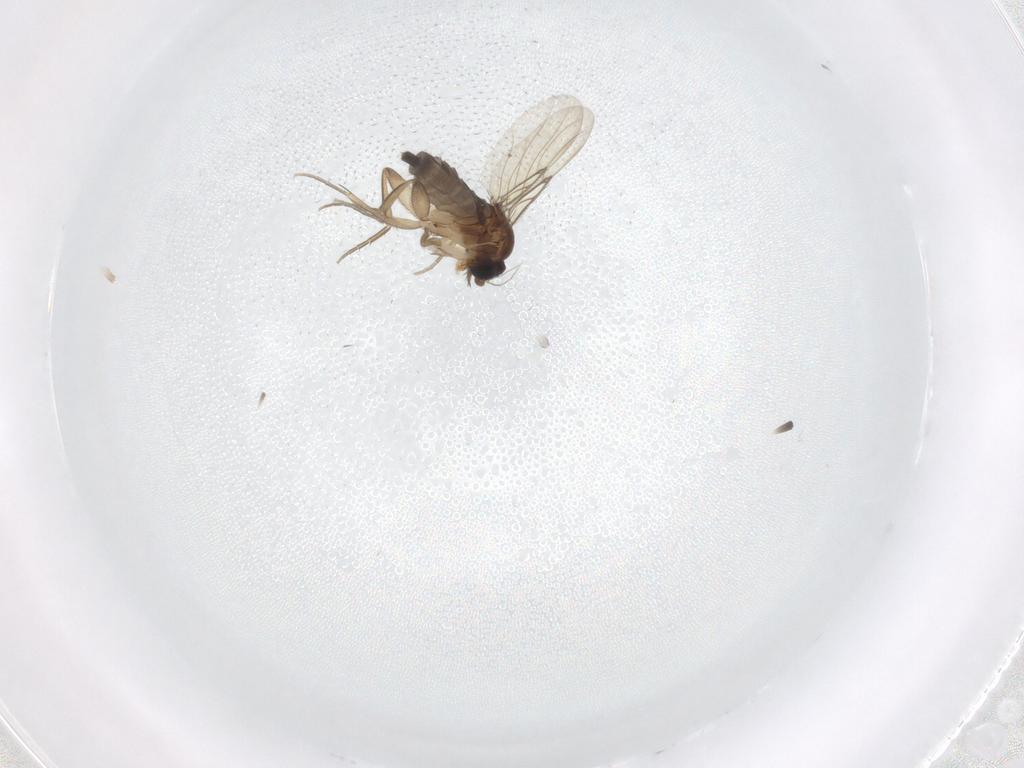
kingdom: Animalia
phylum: Arthropoda
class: Insecta
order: Diptera
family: Phoridae
